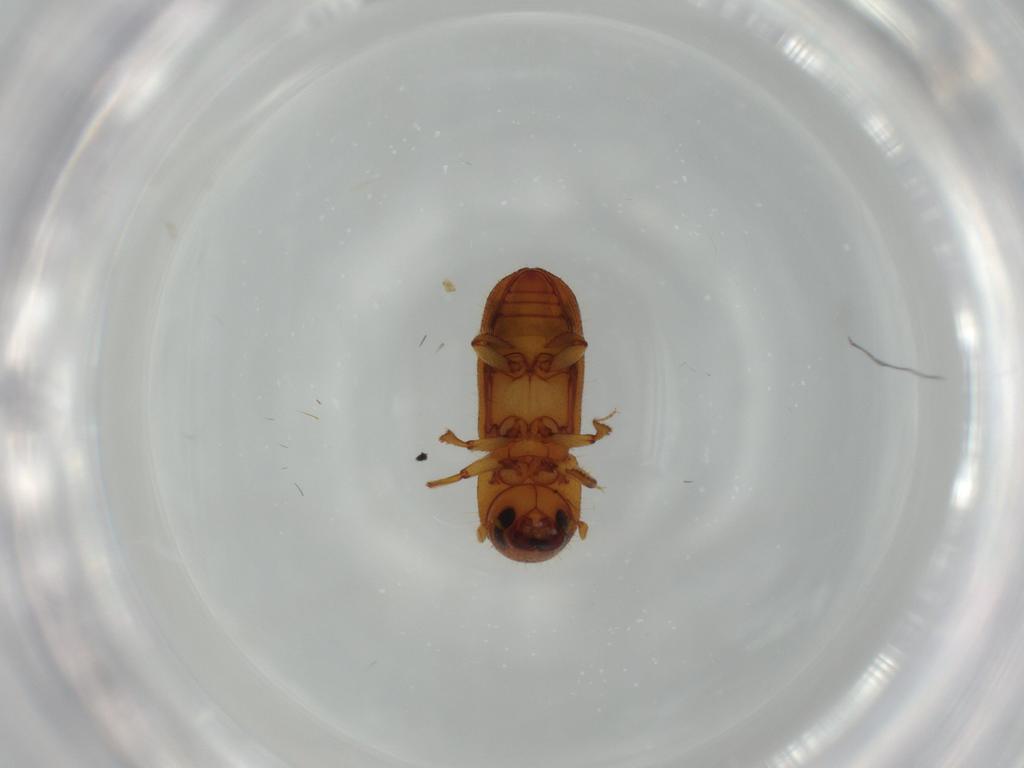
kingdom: Animalia
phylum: Arthropoda
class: Insecta
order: Coleoptera
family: Curculionidae
